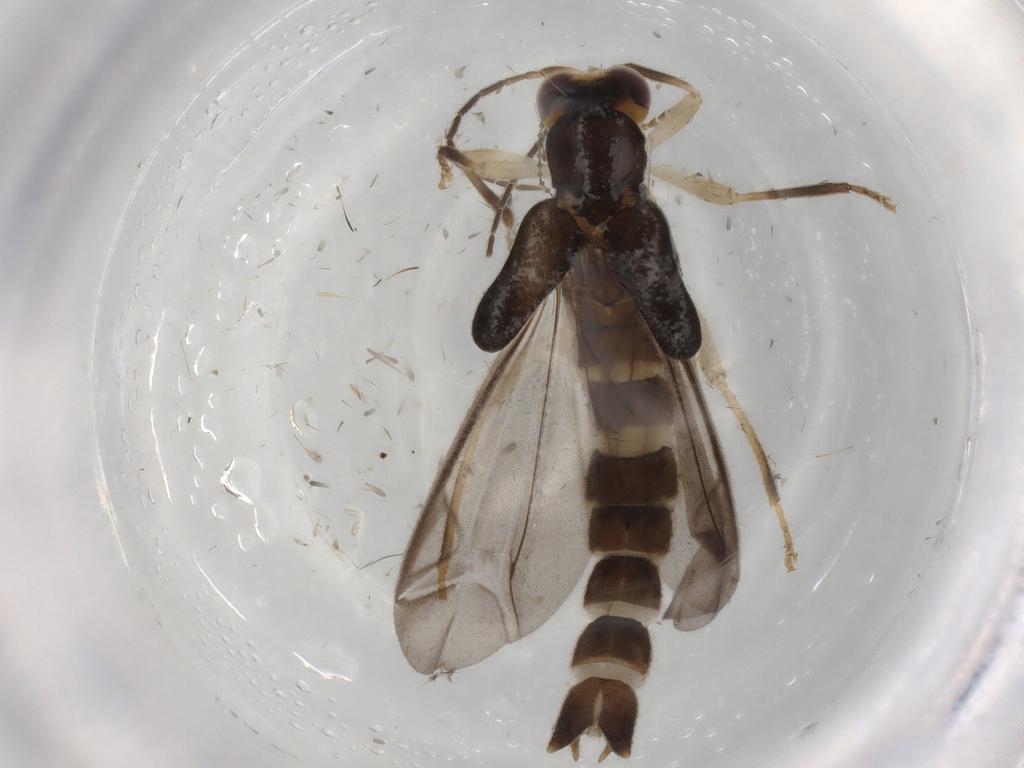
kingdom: Animalia
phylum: Arthropoda
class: Insecta
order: Coleoptera
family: Cantharidae
